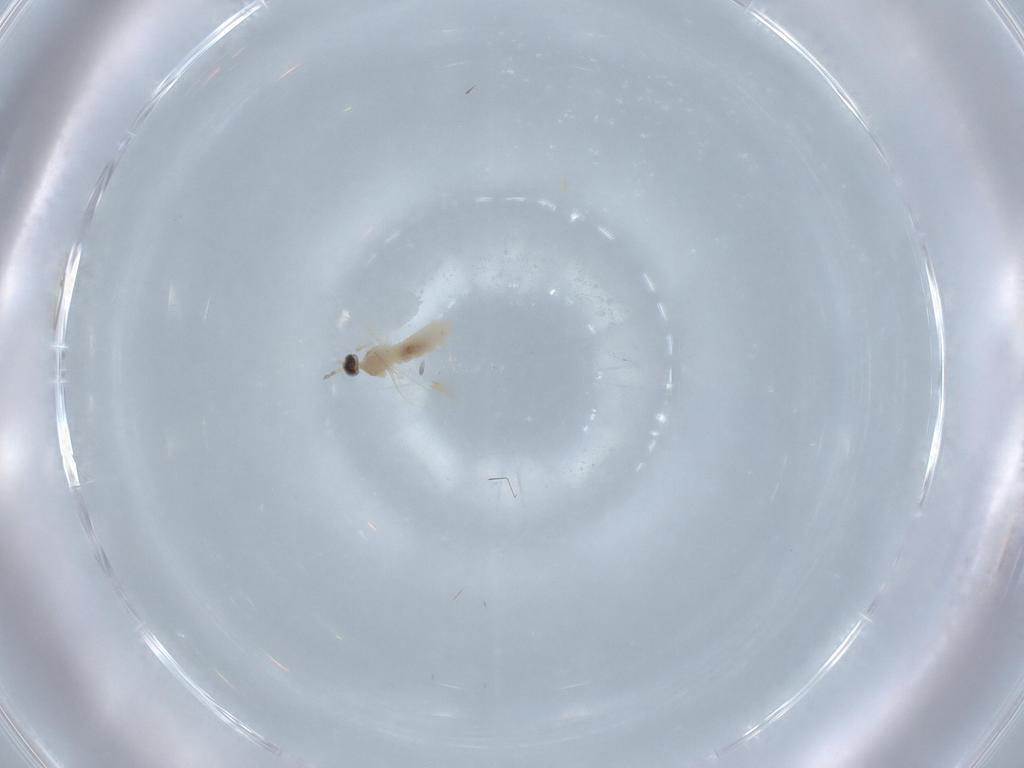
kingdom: Animalia
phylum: Arthropoda
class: Insecta
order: Diptera
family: Cecidomyiidae
